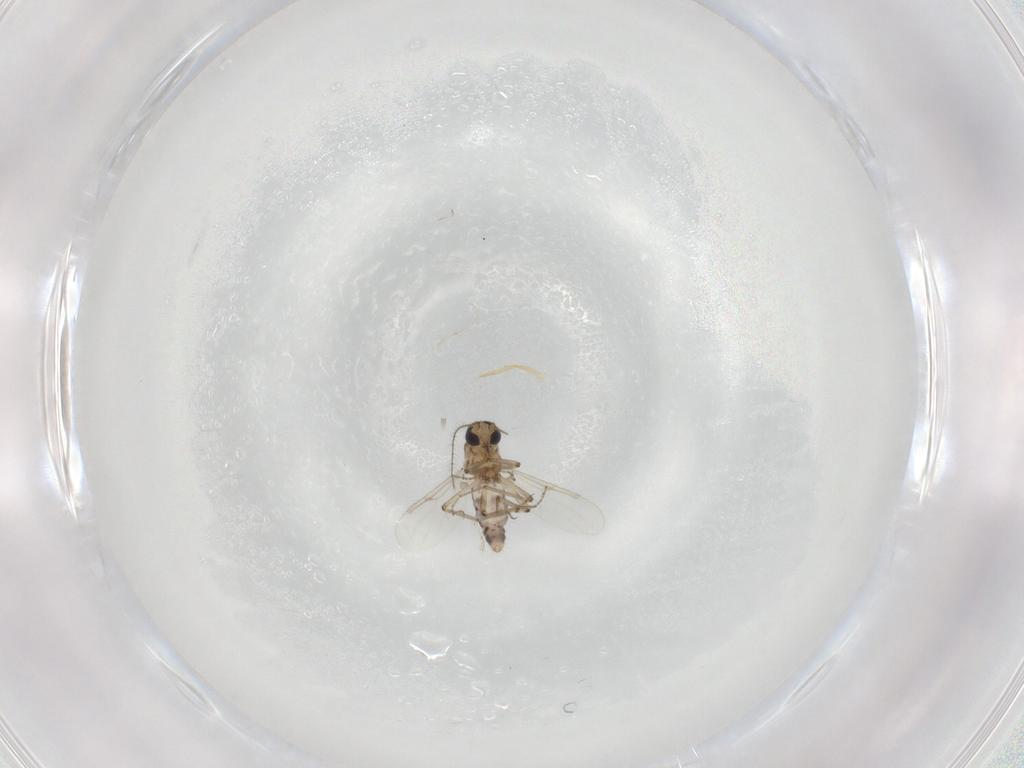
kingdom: Animalia
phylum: Arthropoda
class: Insecta
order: Diptera
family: Ceratopogonidae
